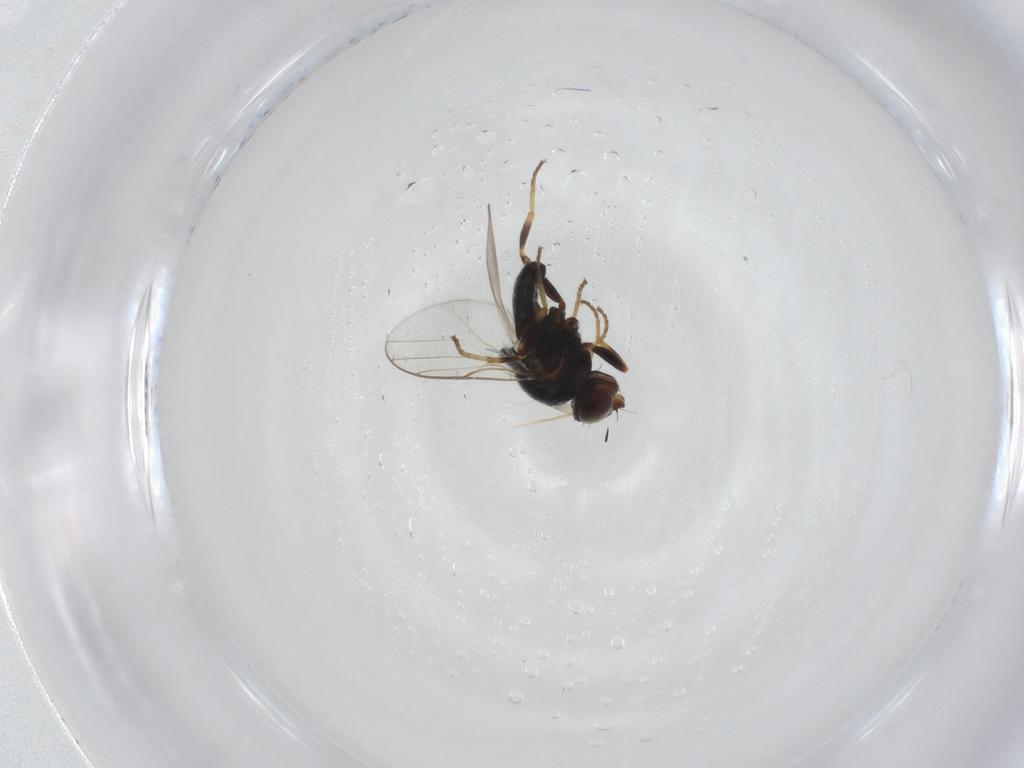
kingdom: Animalia
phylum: Arthropoda
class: Insecta
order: Diptera
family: Chloropidae
